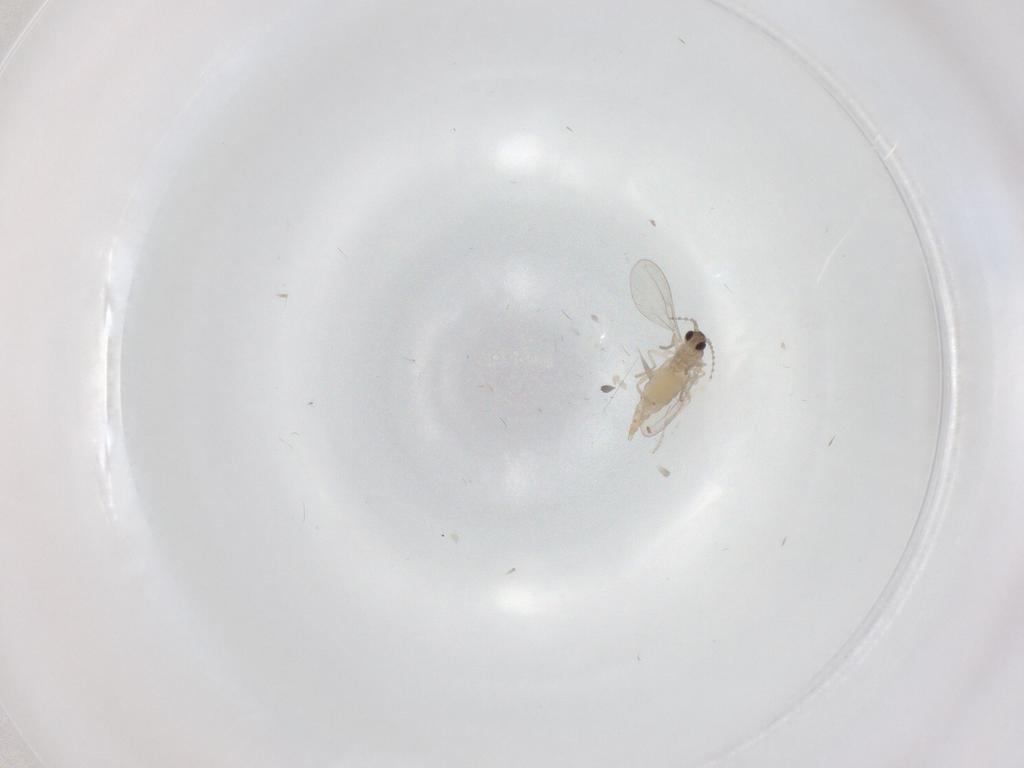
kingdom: Animalia
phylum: Arthropoda
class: Insecta
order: Diptera
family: Cecidomyiidae
